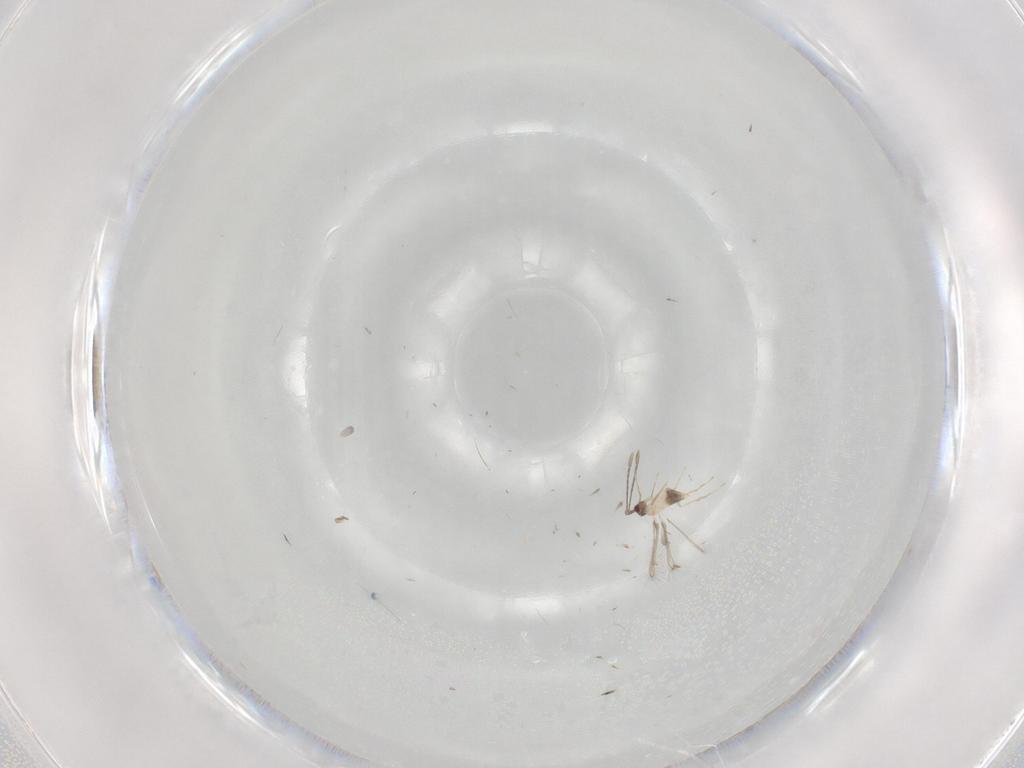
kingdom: Animalia
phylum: Arthropoda
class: Insecta
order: Hymenoptera
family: Mymaridae
